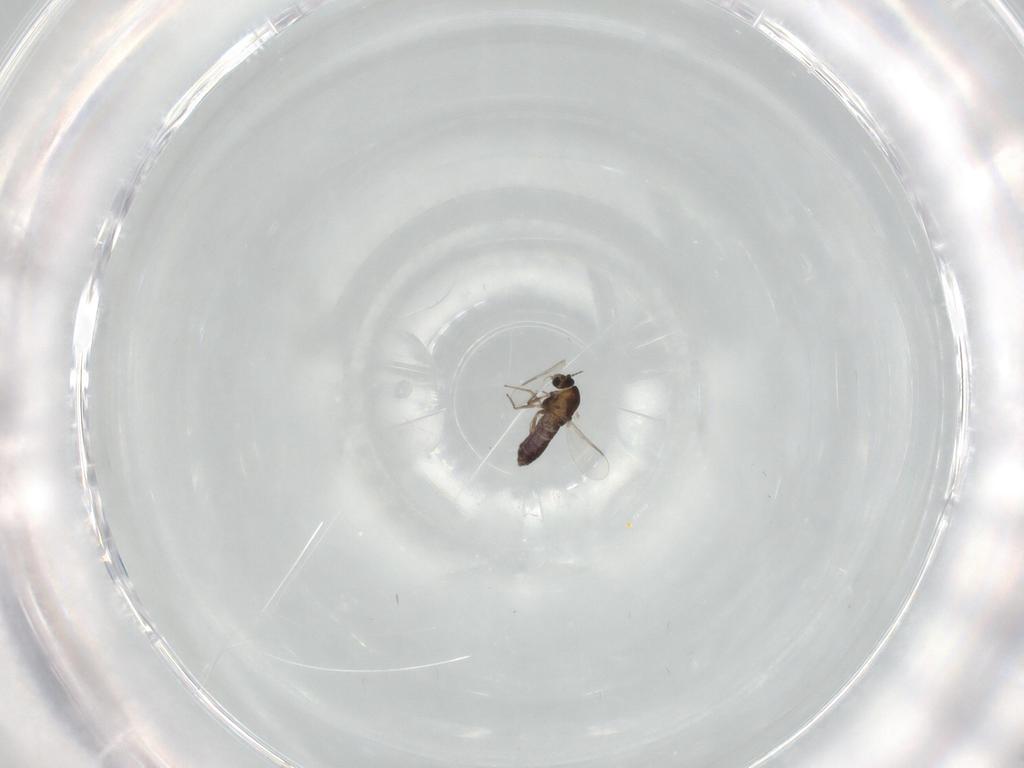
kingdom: Animalia
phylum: Arthropoda
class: Insecta
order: Diptera
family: Chironomidae
